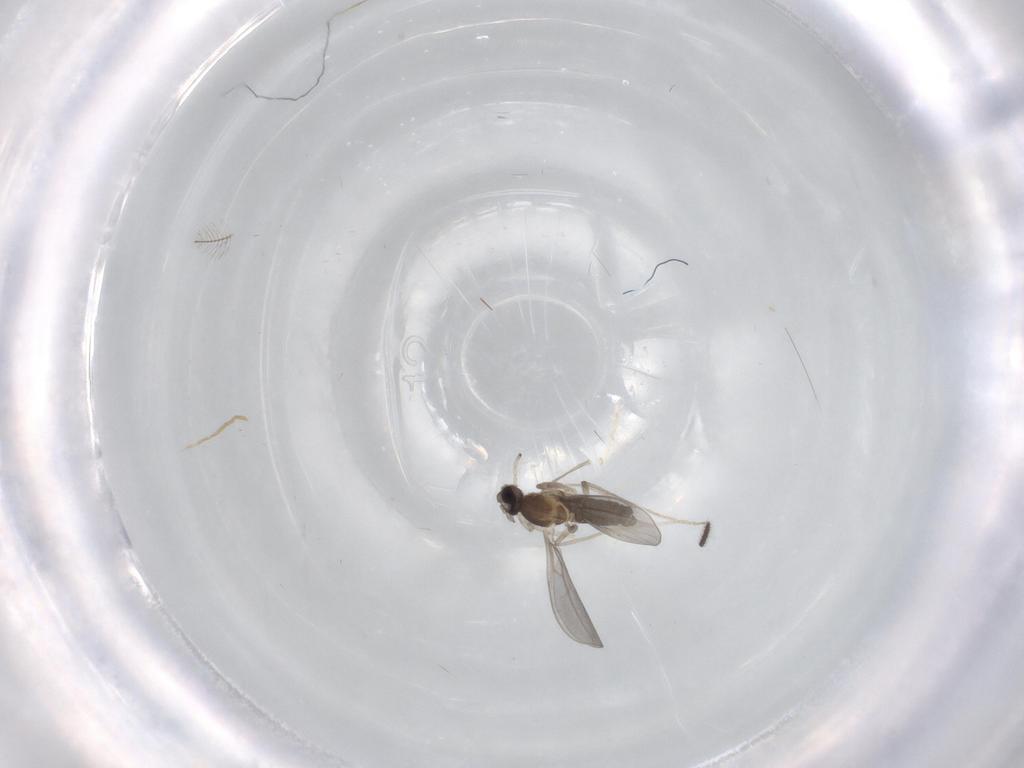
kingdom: Animalia
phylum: Arthropoda
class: Insecta
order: Diptera
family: Cecidomyiidae
